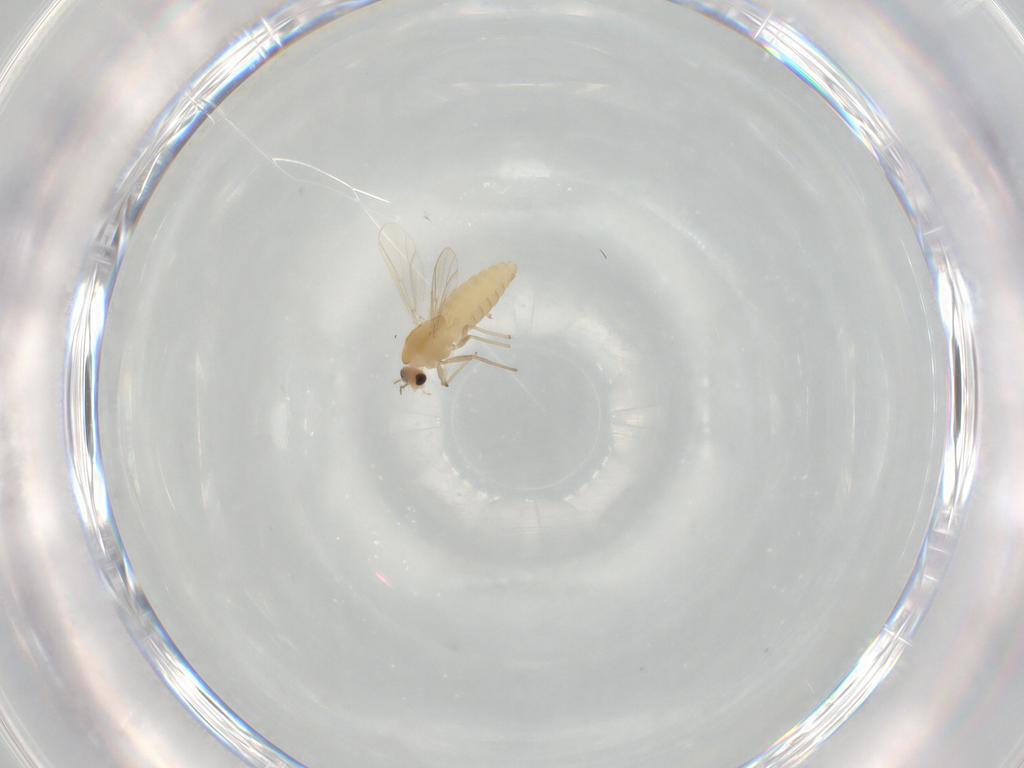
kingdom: Animalia
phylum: Arthropoda
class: Insecta
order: Diptera
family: Chironomidae
